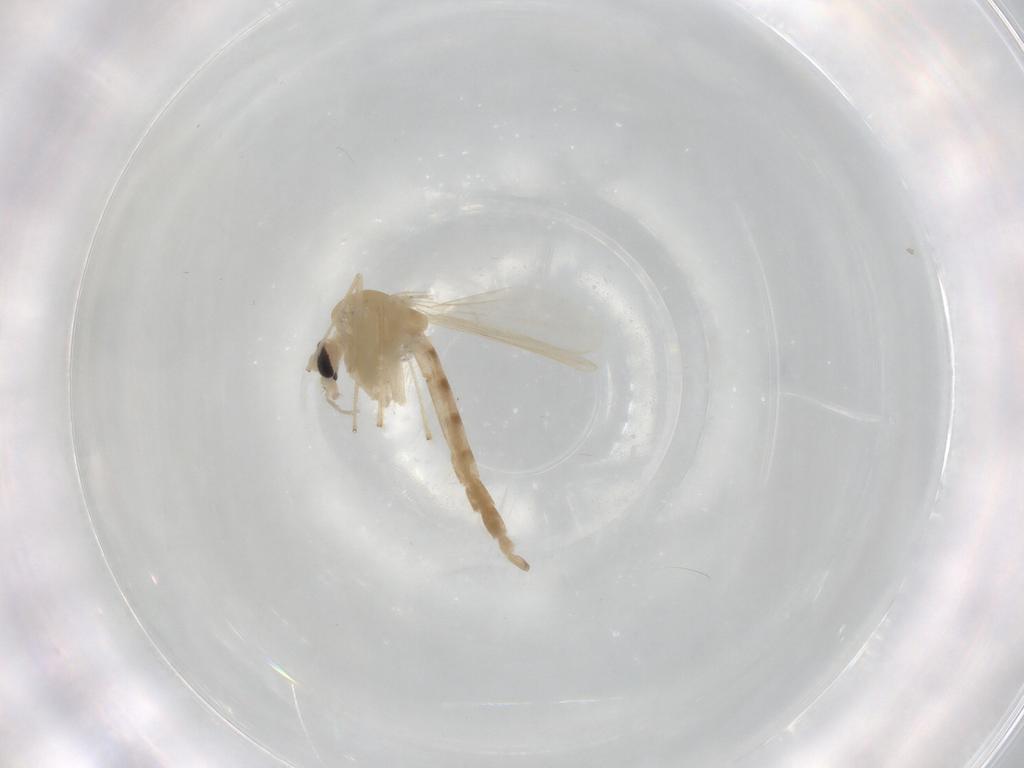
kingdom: Animalia
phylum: Arthropoda
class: Insecta
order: Diptera
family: Chironomidae
